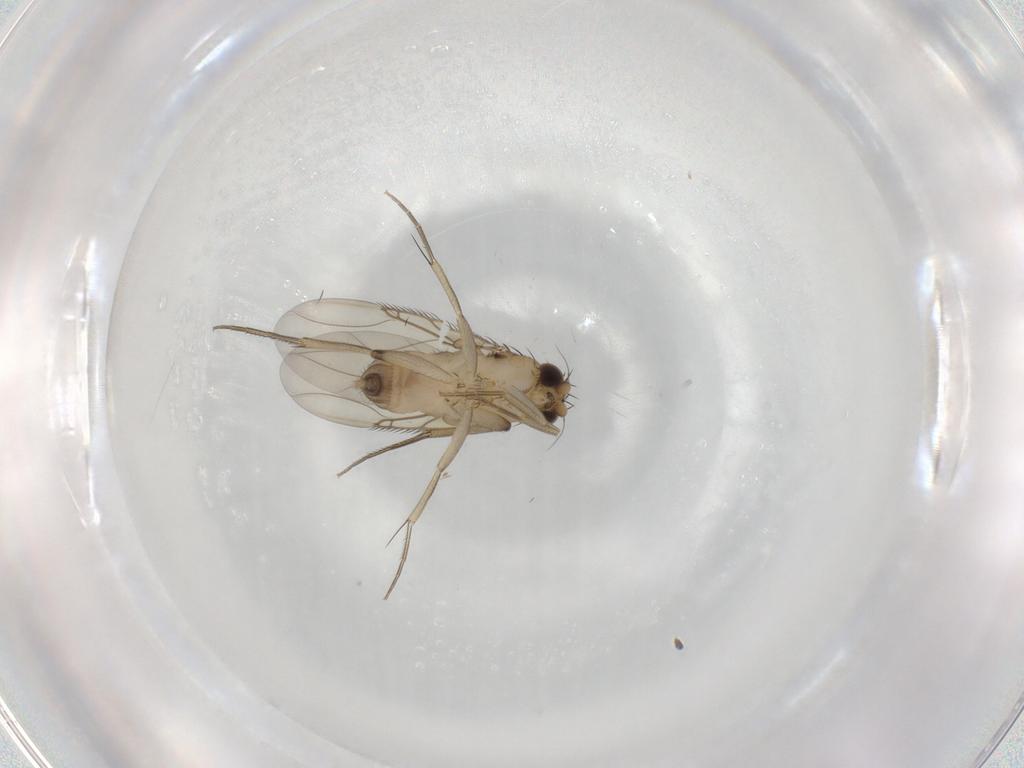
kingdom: Animalia
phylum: Arthropoda
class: Insecta
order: Diptera
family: Phoridae
